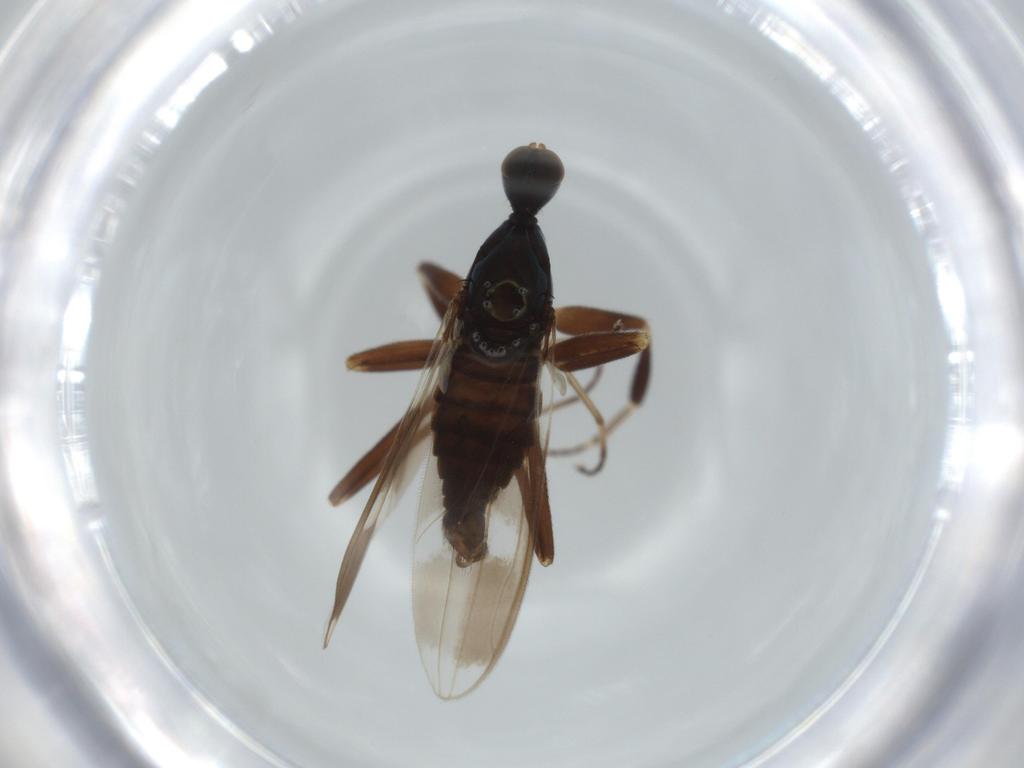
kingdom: Animalia
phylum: Arthropoda
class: Insecta
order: Diptera
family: Hybotidae
